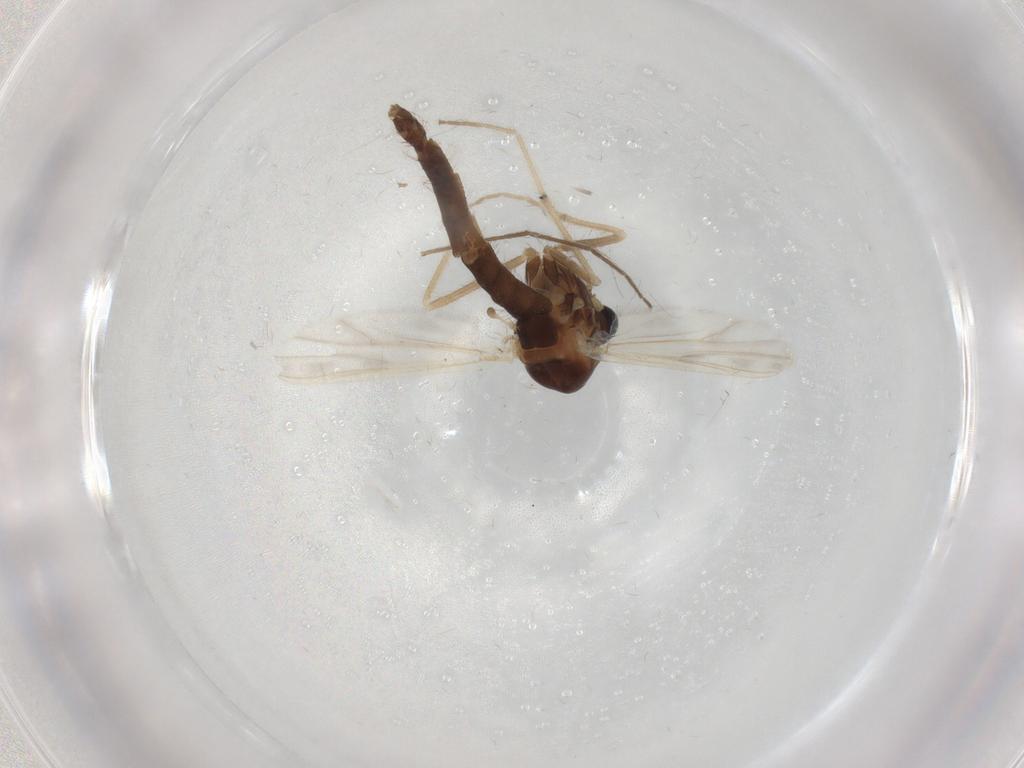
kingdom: Animalia
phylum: Arthropoda
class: Insecta
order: Diptera
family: Chironomidae
